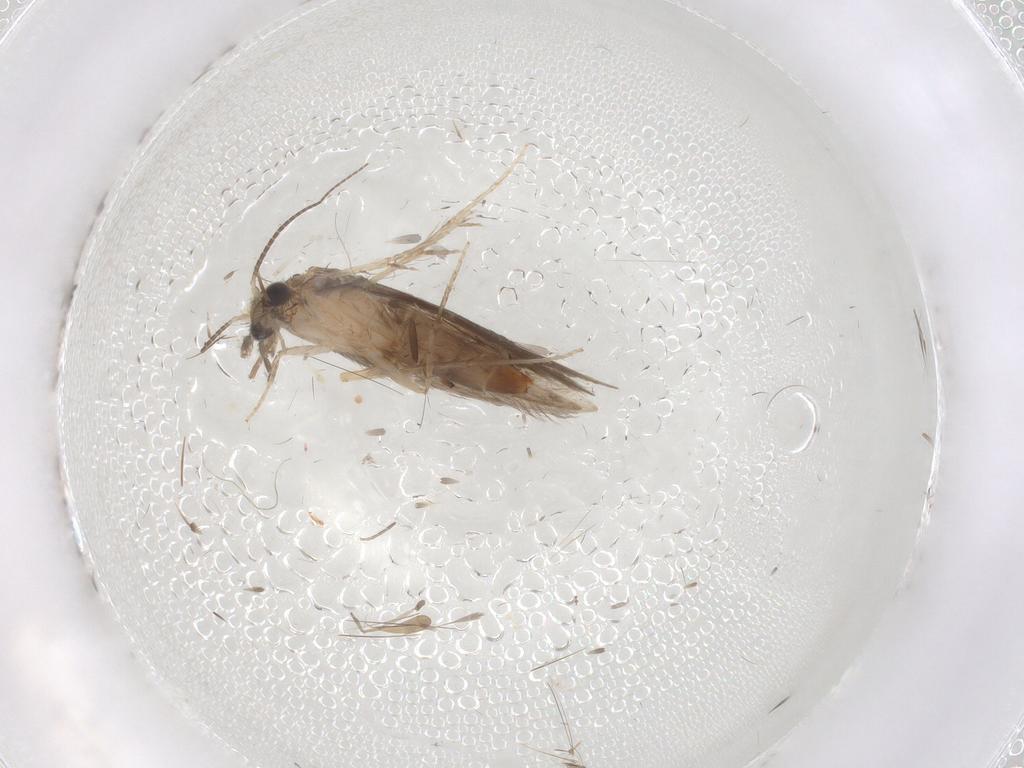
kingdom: Animalia
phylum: Arthropoda
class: Insecta
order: Trichoptera
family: Hydroptilidae
